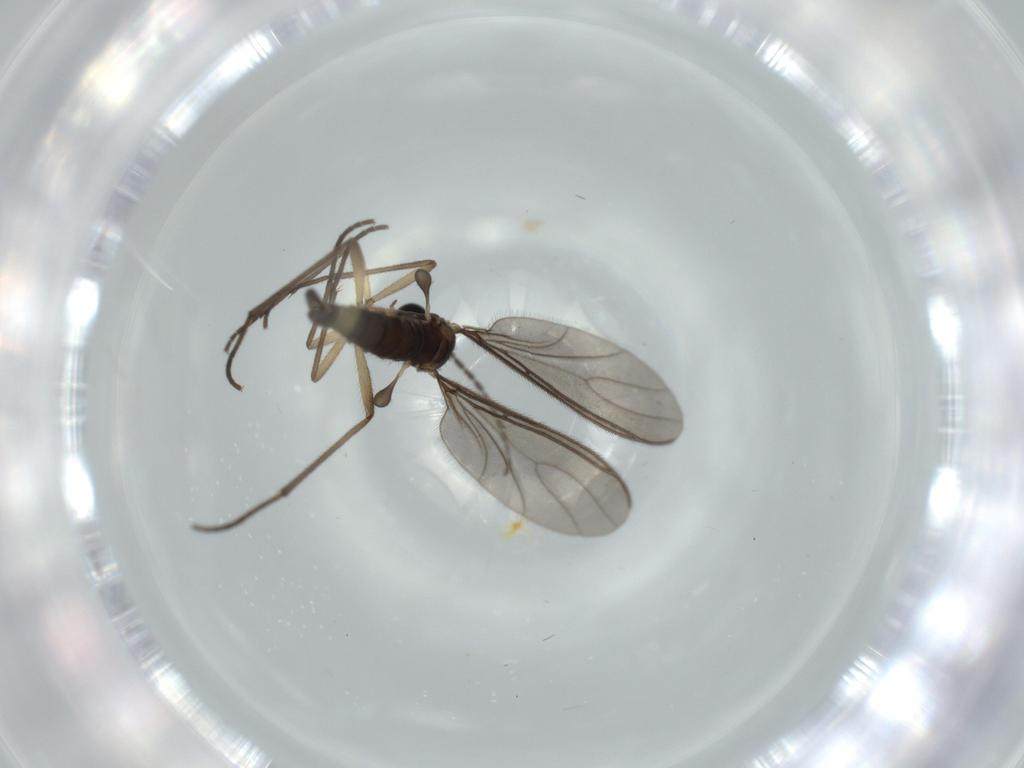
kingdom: Animalia
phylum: Arthropoda
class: Insecta
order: Diptera
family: Sciaridae
